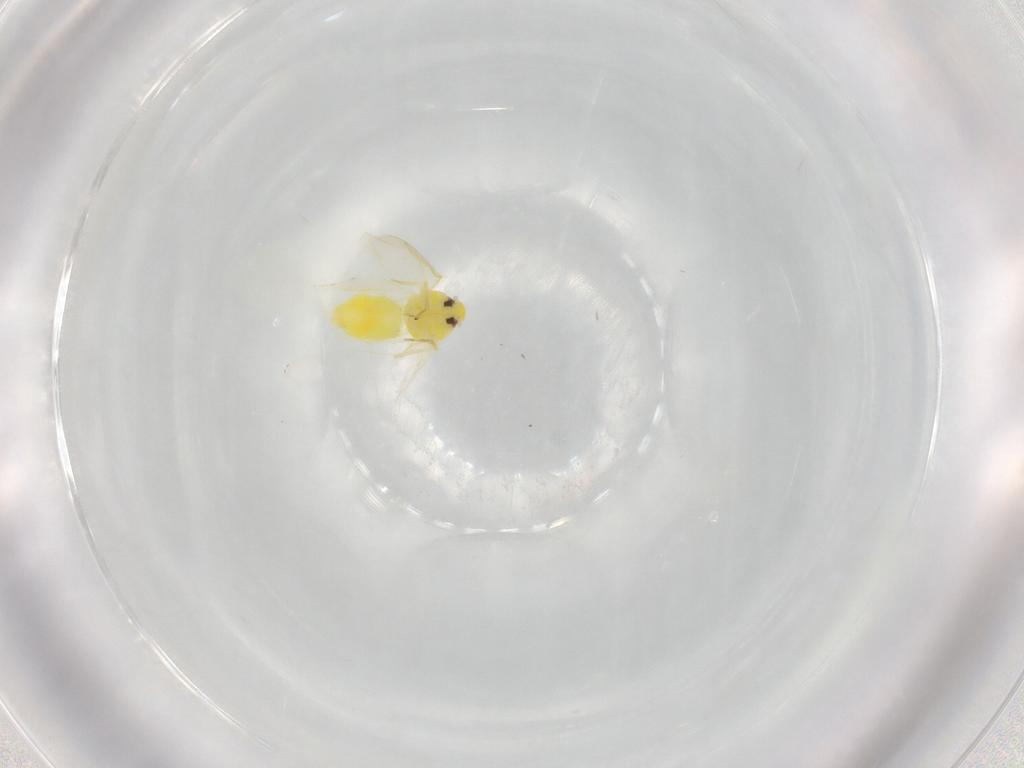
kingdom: Animalia
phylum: Arthropoda
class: Insecta
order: Hemiptera
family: Aleyrodidae
